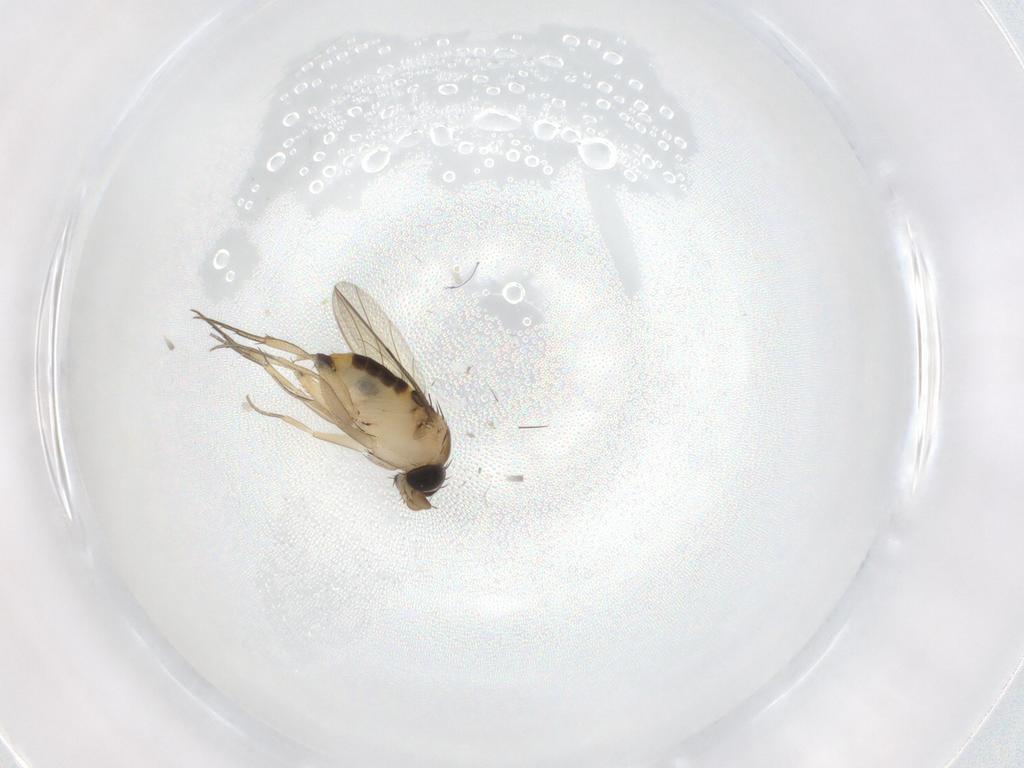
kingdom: Animalia
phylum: Arthropoda
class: Insecta
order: Diptera
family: Phoridae
